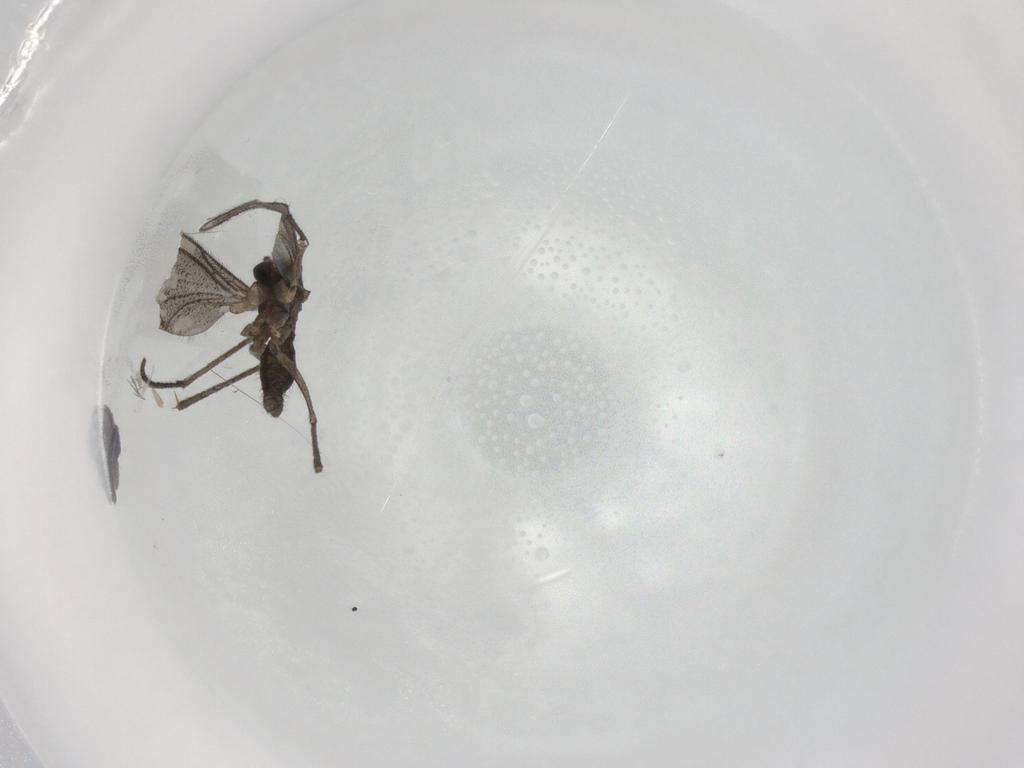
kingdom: Animalia
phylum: Arthropoda
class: Insecta
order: Diptera
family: Sciaridae
